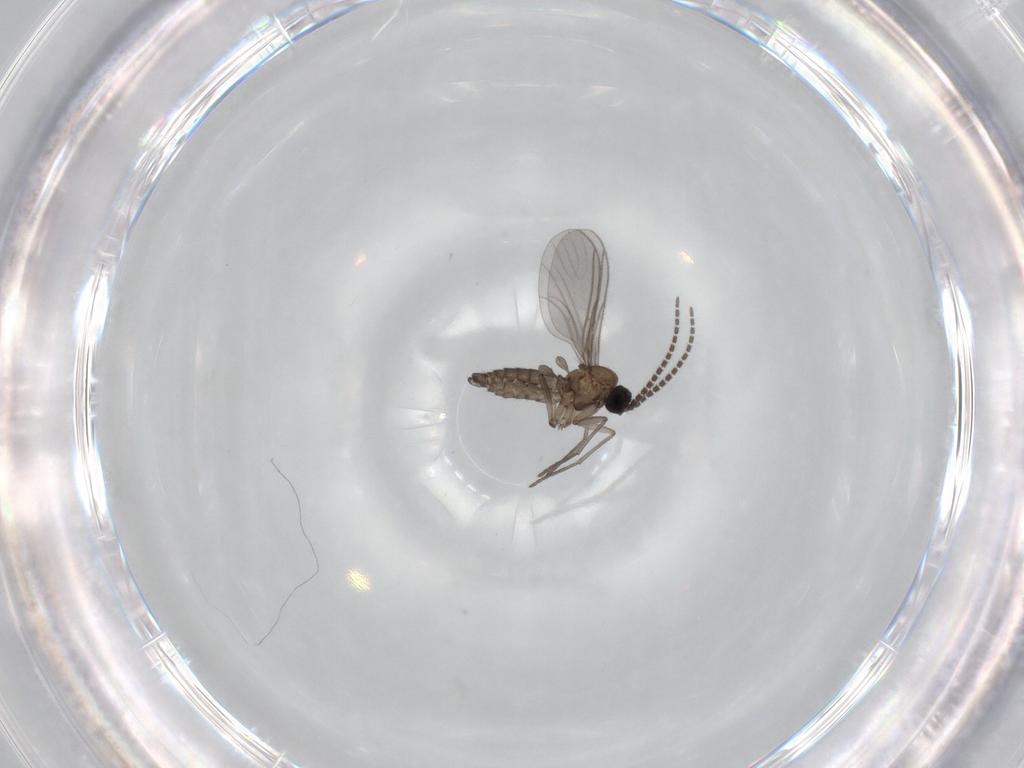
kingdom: Animalia
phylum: Arthropoda
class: Insecta
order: Diptera
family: Sciaridae
